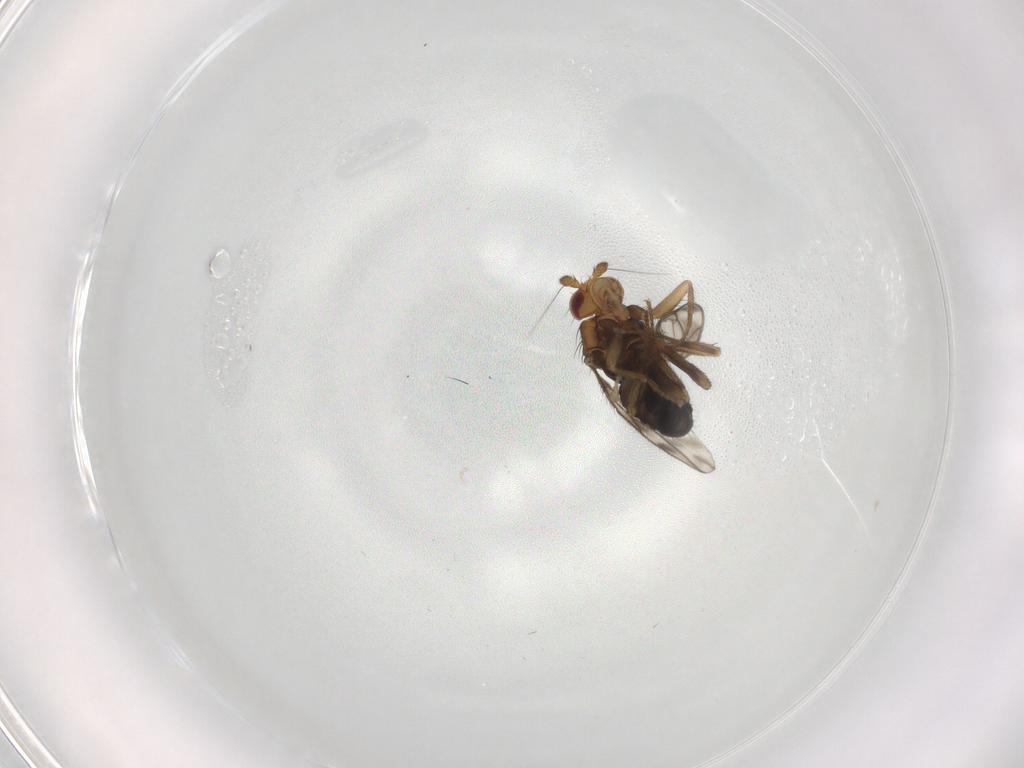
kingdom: Animalia
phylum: Arthropoda
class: Insecta
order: Diptera
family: Sphaeroceridae
